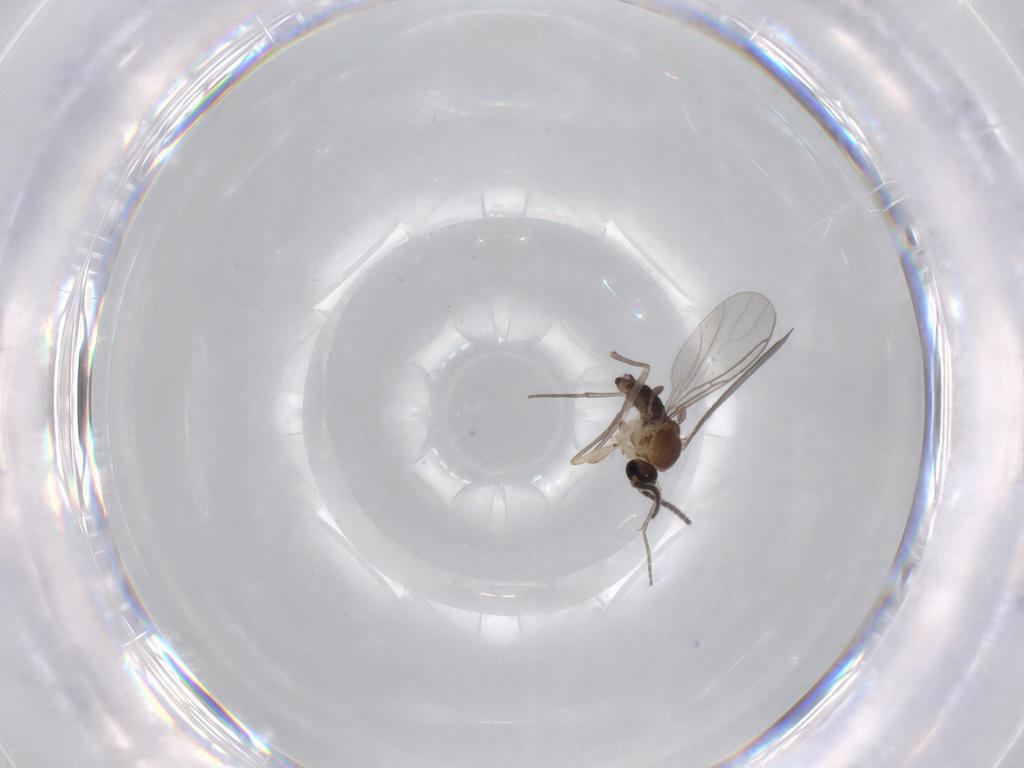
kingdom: Animalia
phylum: Arthropoda
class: Insecta
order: Diptera
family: Sciaridae
